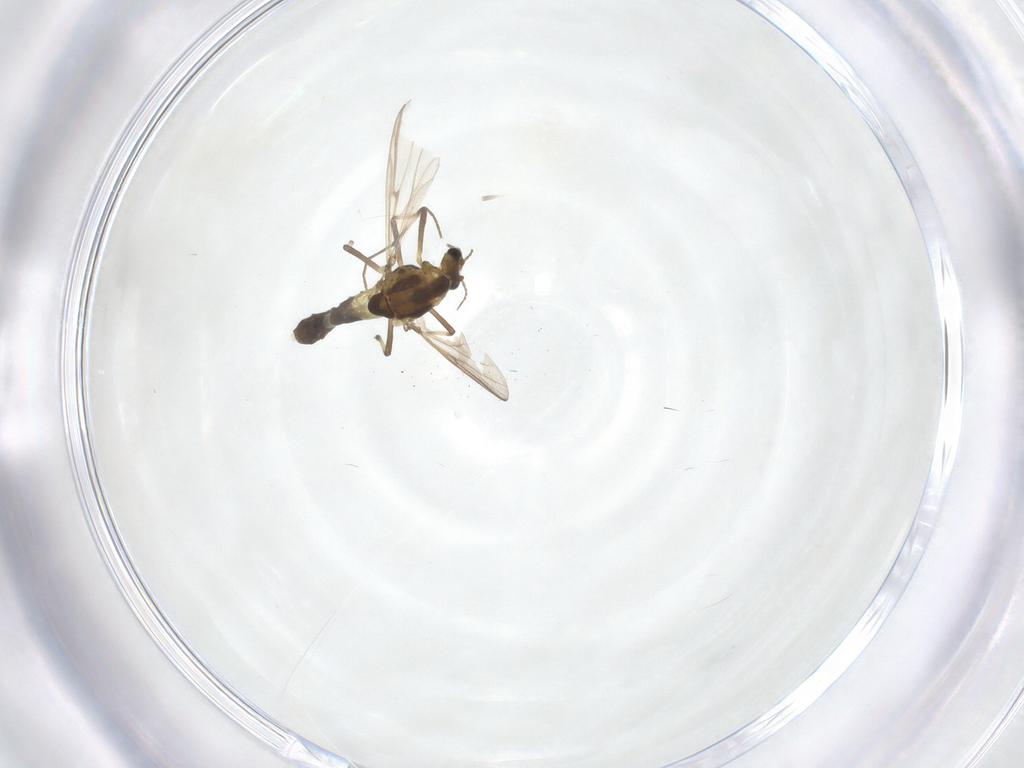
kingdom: Animalia
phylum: Arthropoda
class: Insecta
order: Diptera
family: Chironomidae
